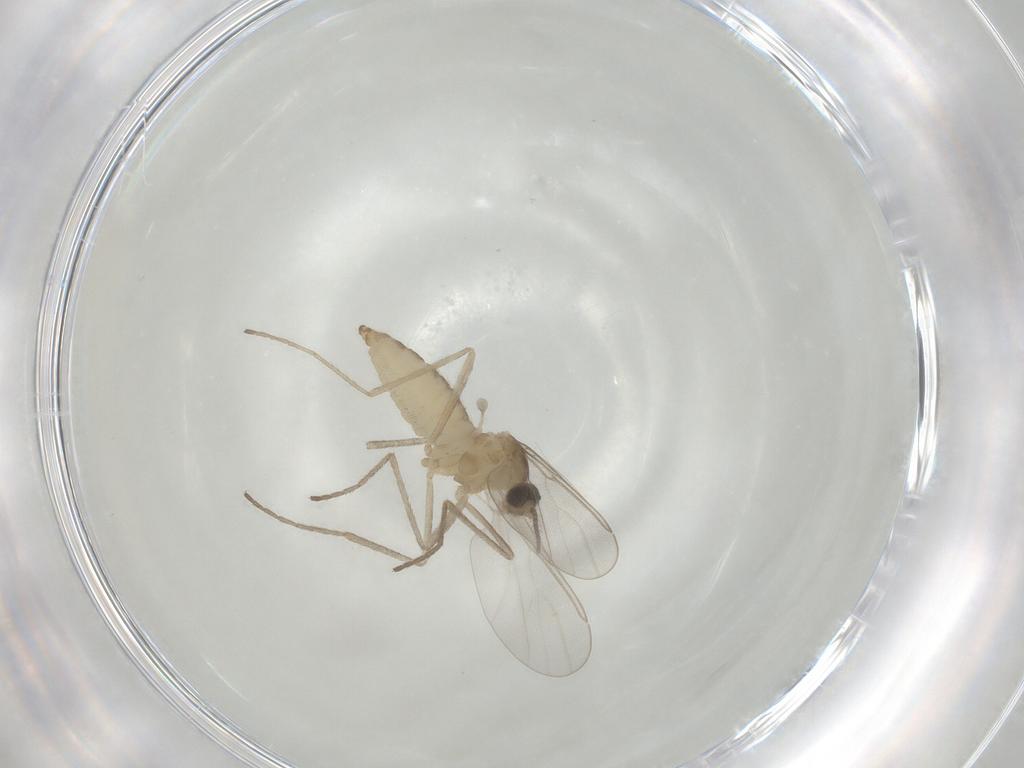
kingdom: Animalia
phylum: Arthropoda
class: Insecta
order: Diptera
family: Cecidomyiidae
